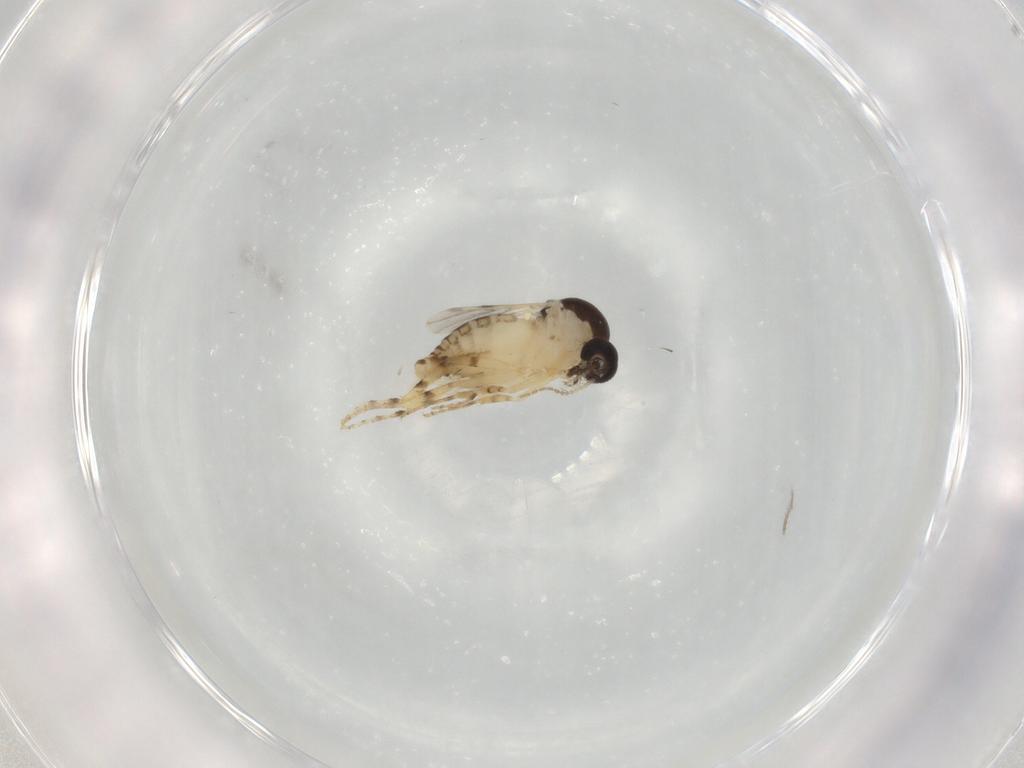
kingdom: Animalia
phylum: Arthropoda
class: Insecta
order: Diptera
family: Ceratopogonidae
